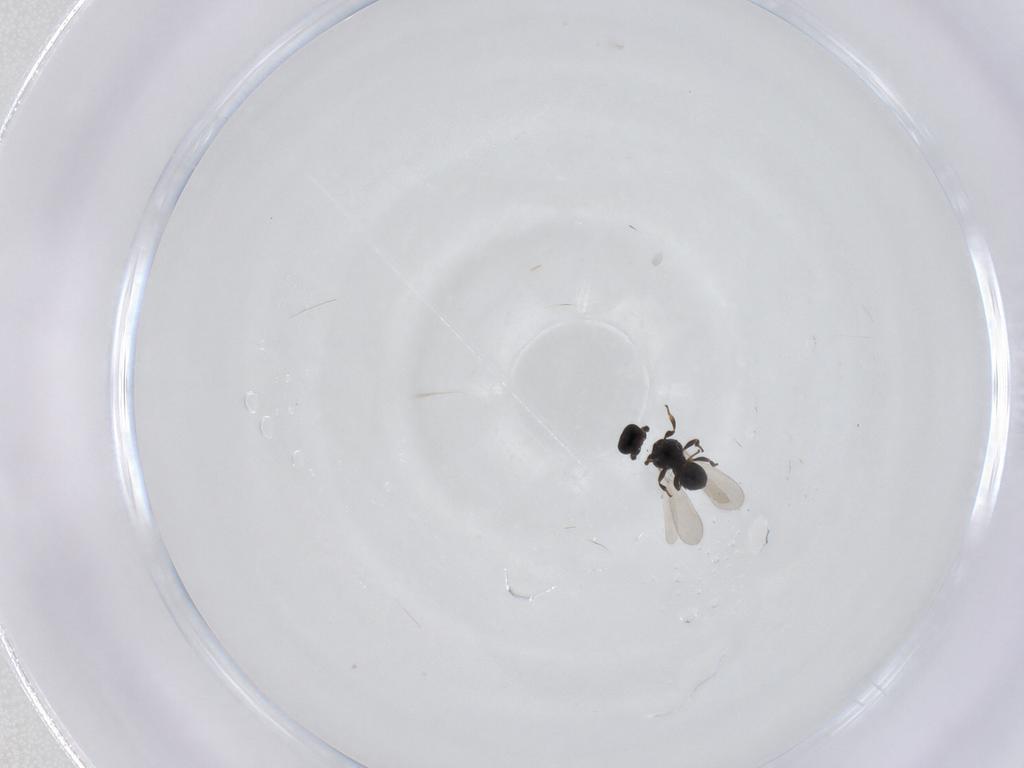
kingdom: Animalia
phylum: Arthropoda
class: Insecta
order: Hymenoptera
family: Platygastridae
